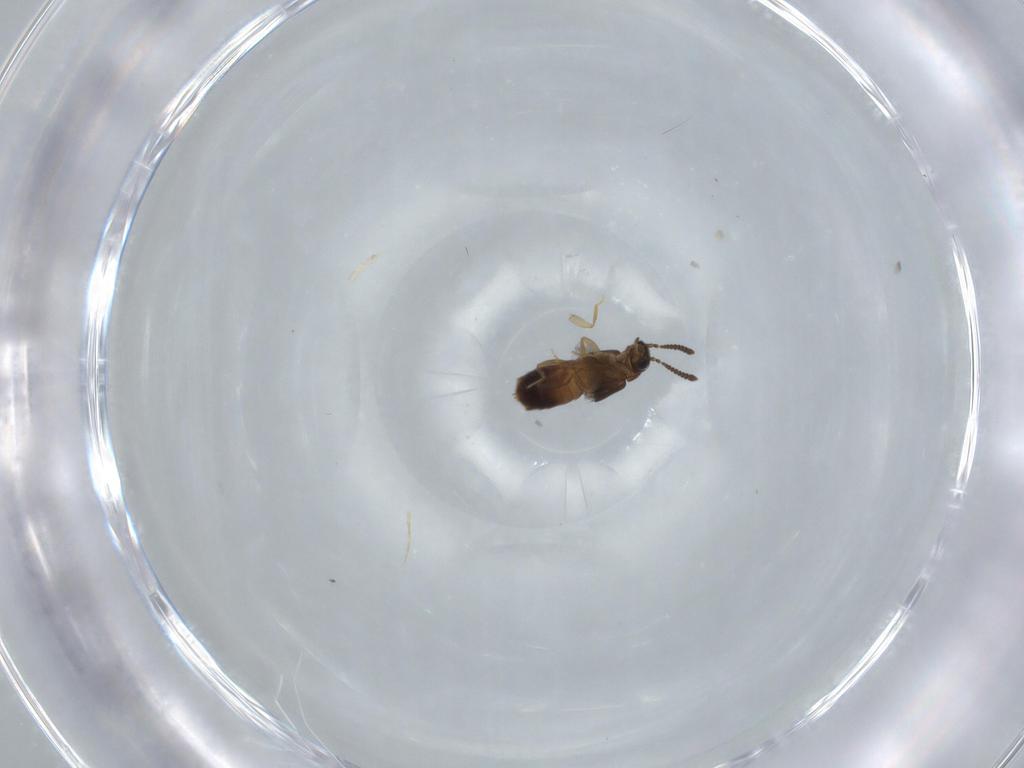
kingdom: Animalia
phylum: Arthropoda
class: Insecta
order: Coleoptera
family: Staphylinidae
